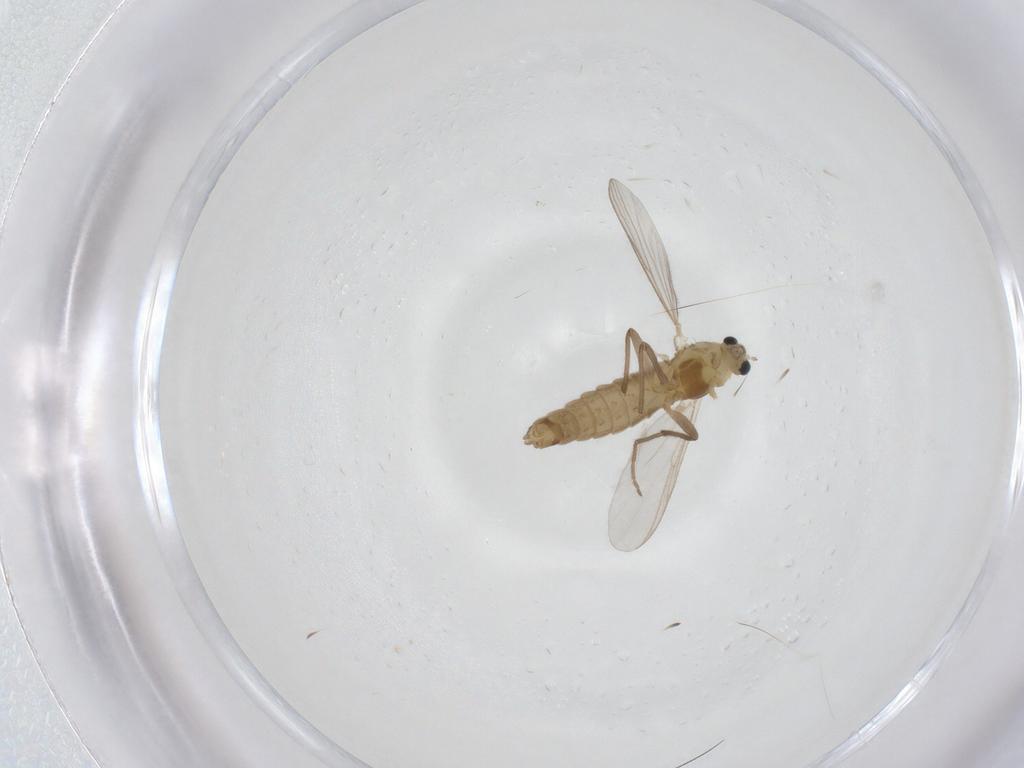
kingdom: Animalia
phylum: Arthropoda
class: Insecta
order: Diptera
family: Chironomidae
